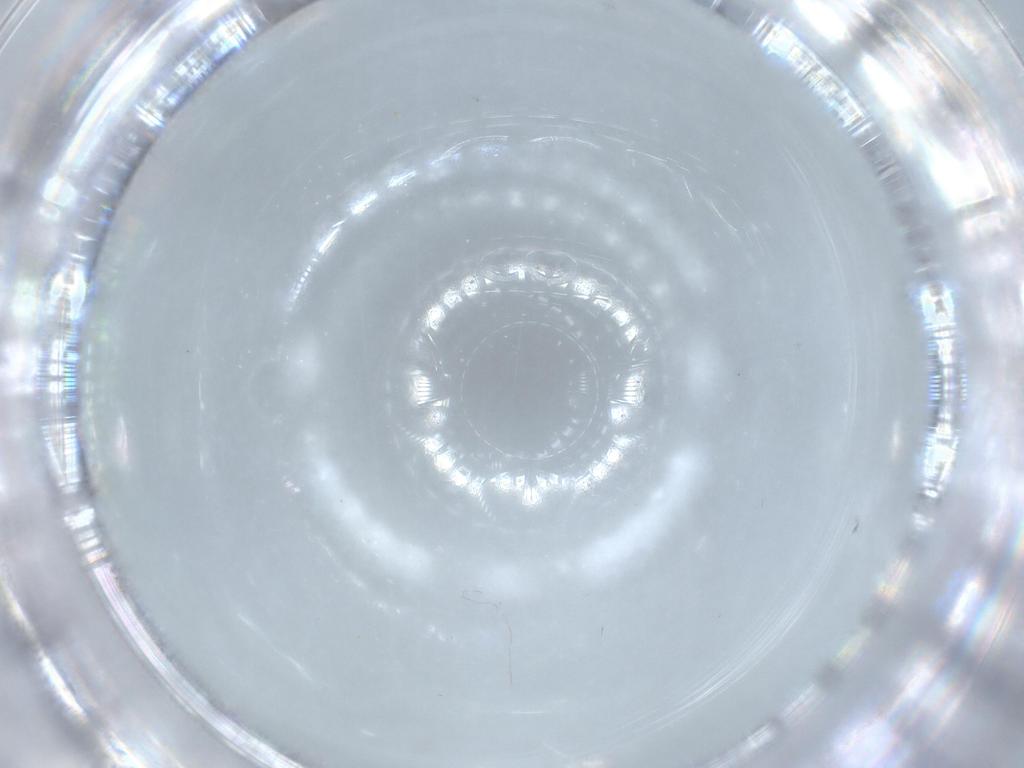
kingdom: Animalia
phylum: Arthropoda
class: Insecta
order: Diptera
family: Cecidomyiidae
